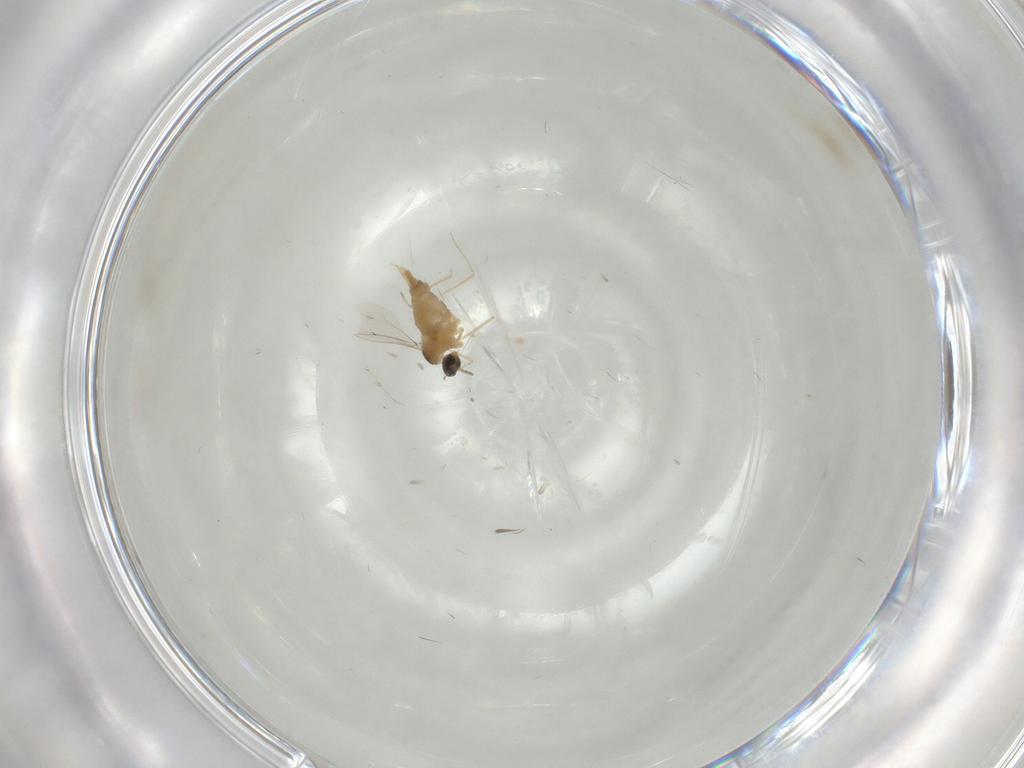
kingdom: Animalia
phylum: Arthropoda
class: Insecta
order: Diptera
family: Cecidomyiidae
